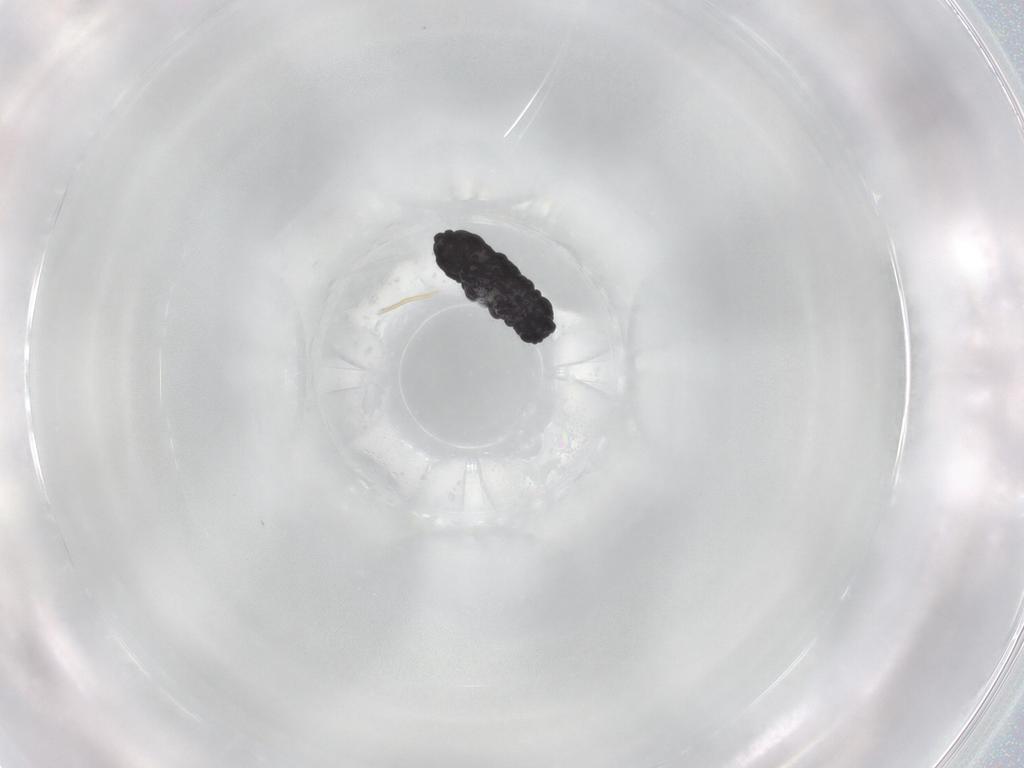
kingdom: Animalia
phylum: Arthropoda
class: Collembola
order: Poduromorpha
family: Neanuridae
